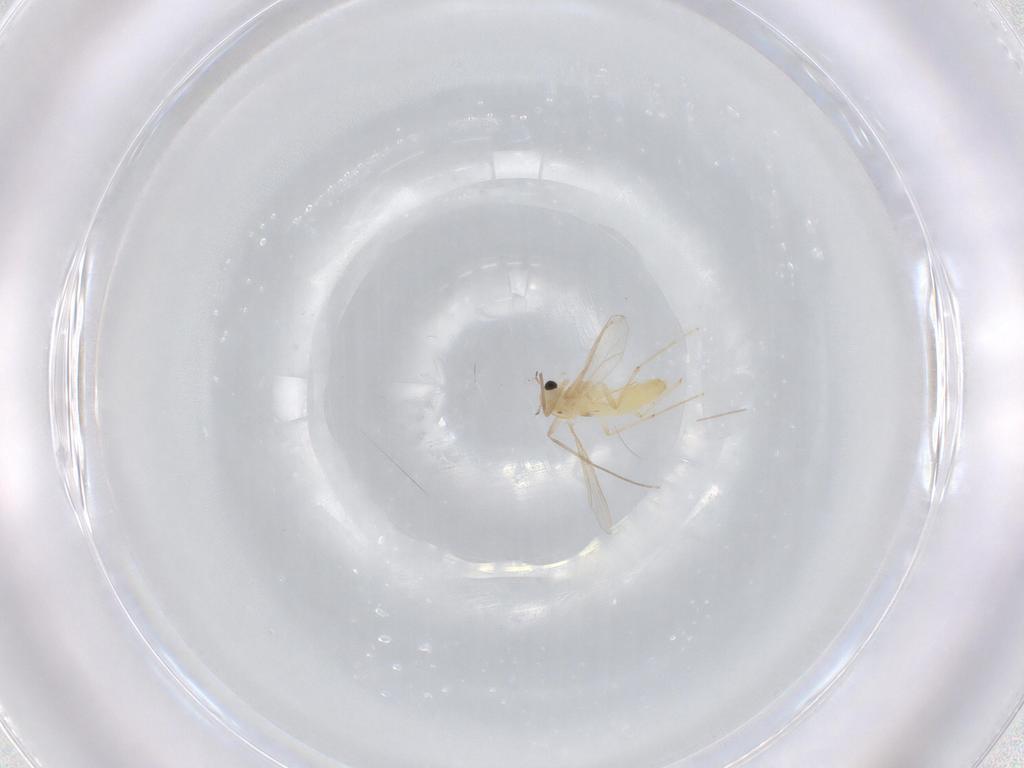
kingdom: Animalia
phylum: Arthropoda
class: Insecta
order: Diptera
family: Chironomidae
